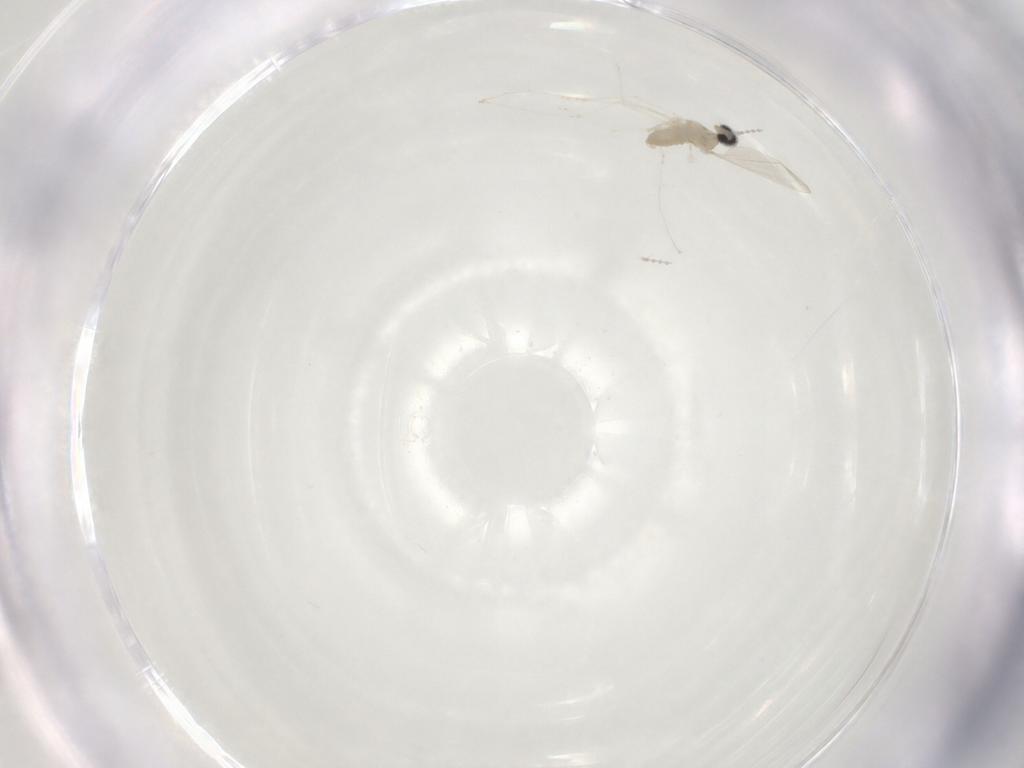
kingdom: Animalia
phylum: Arthropoda
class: Insecta
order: Diptera
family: Cecidomyiidae
